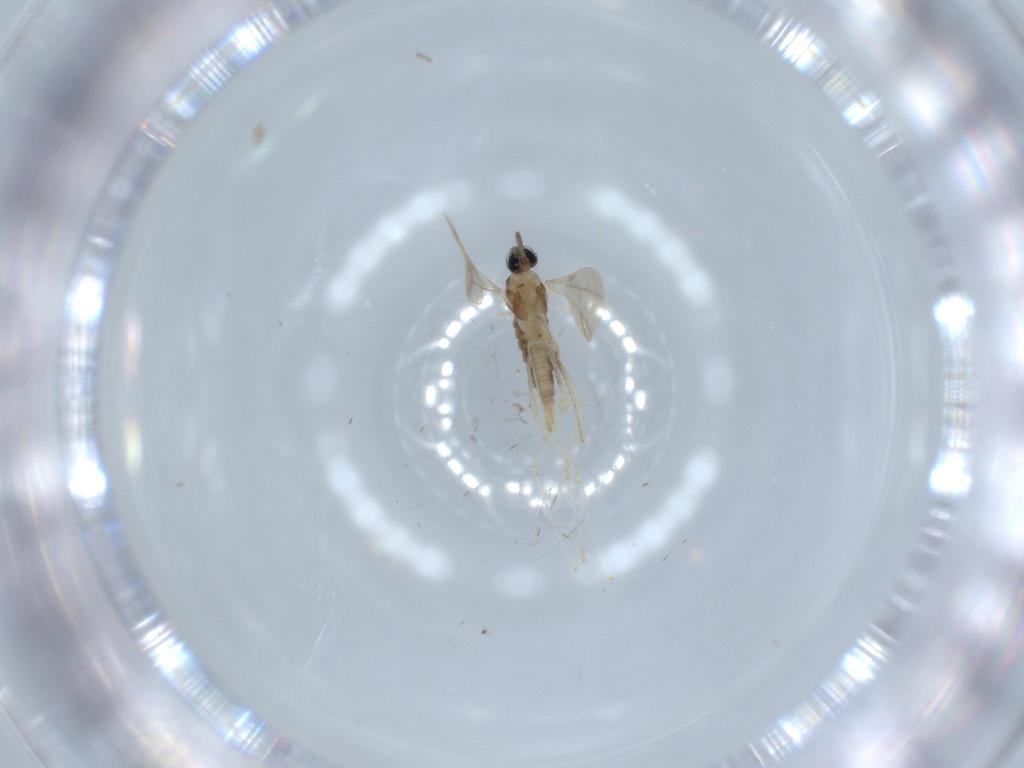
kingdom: Animalia
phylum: Arthropoda
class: Insecta
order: Diptera
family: Cecidomyiidae
